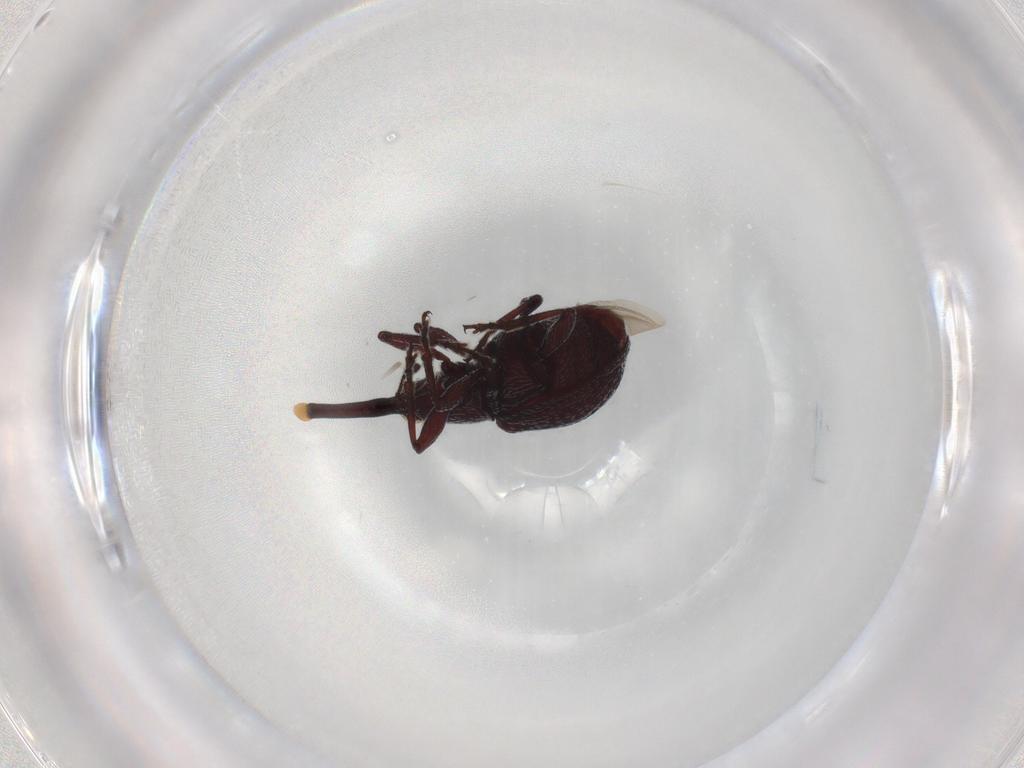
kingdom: Animalia
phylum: Arthropoda
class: Insecta
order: Coleoptera
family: Brentidae
